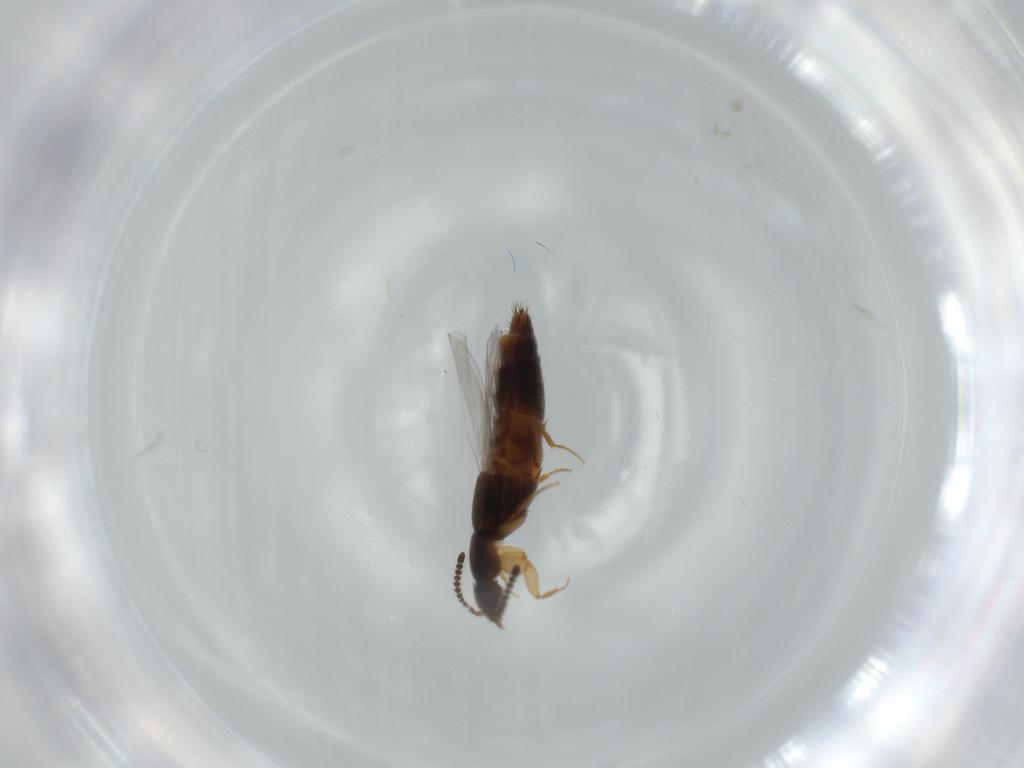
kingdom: Animalia
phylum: Arthropoda
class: Insecta
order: Coleoptera
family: Staphylinidae
